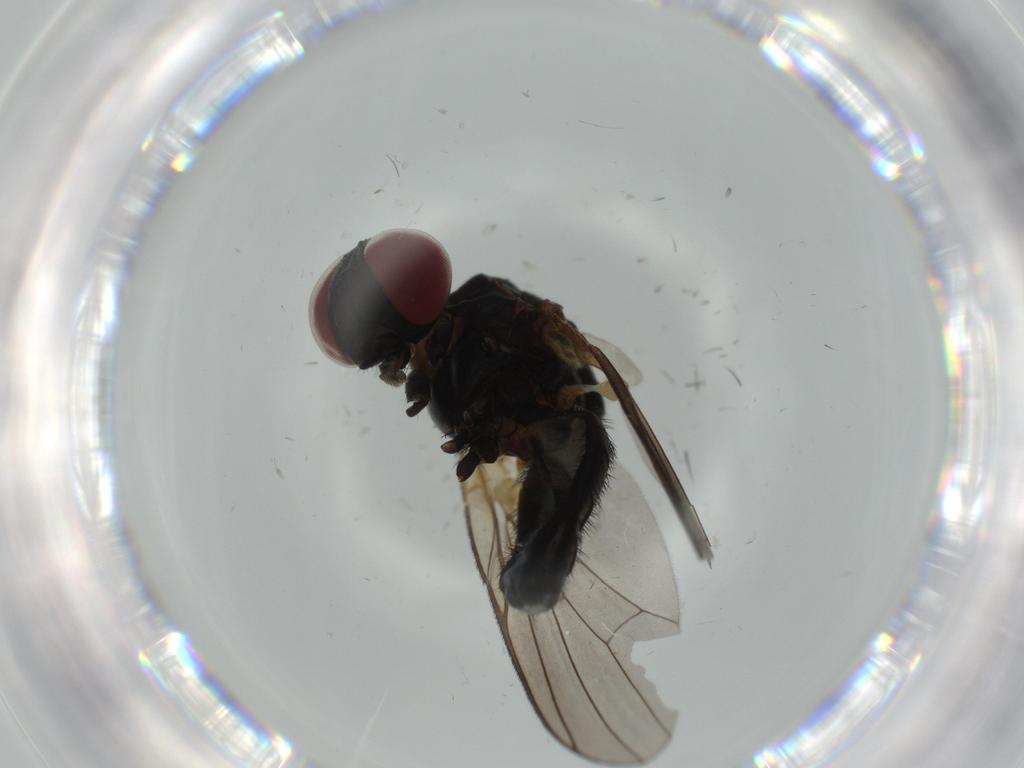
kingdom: Animalia
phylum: Arthropoda
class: Insecta
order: Diptera
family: Psychodidae
